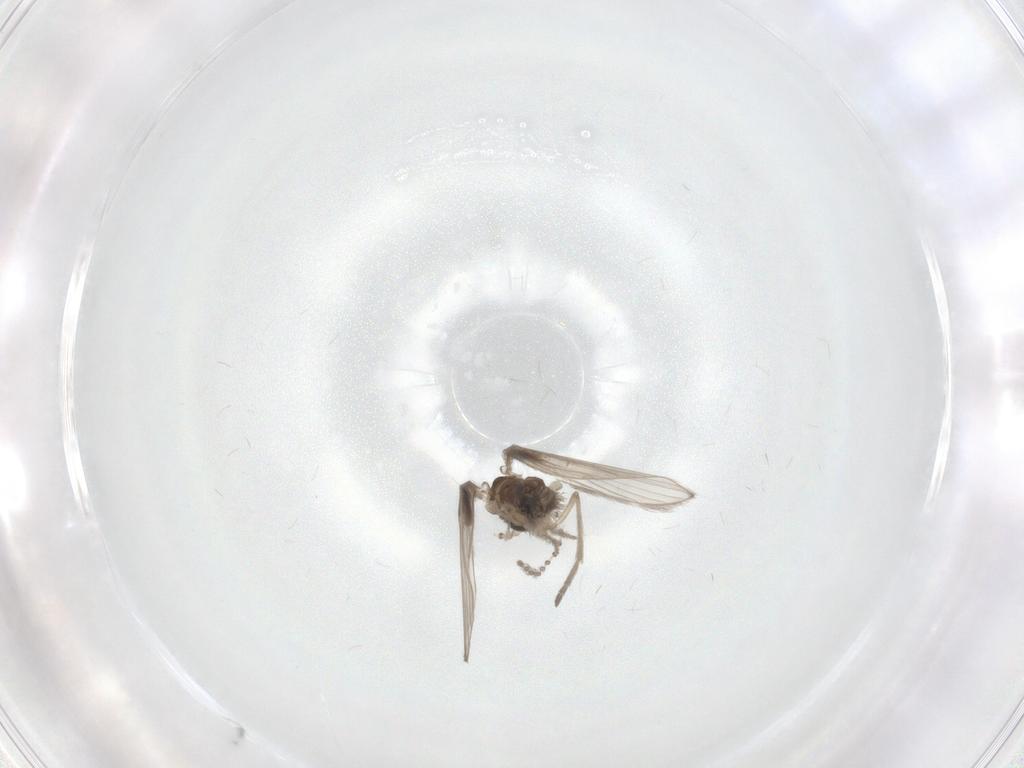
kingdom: Animalia
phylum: Arthropoda
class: Insecta
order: Diptera
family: Psychodidae
